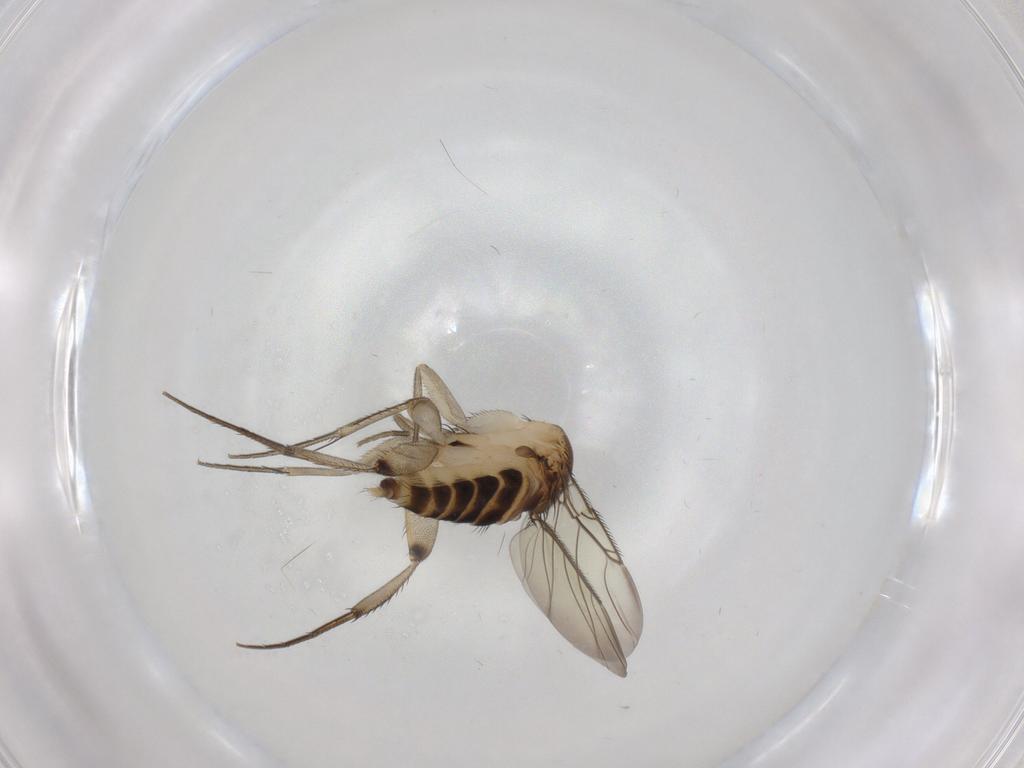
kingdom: Animalia
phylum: Arthropoda
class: Insecta
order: Diptera
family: Phoridae
